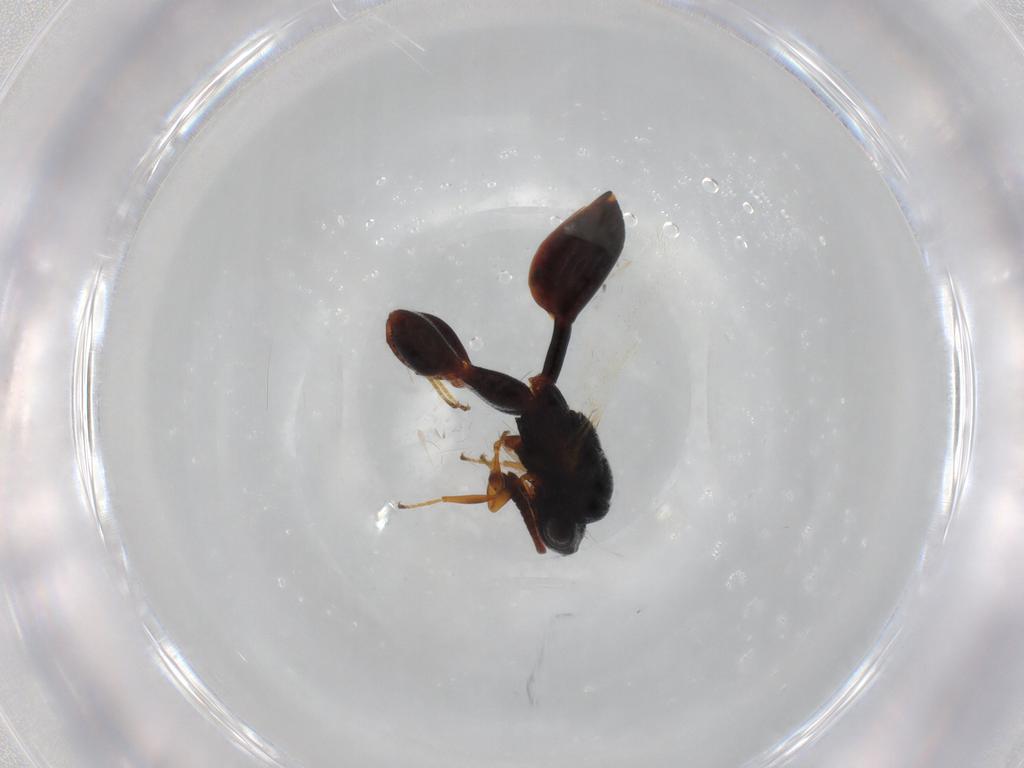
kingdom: Animalia
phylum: Arthropoda
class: Insecta
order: Hymenoptera
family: Chalcididae
